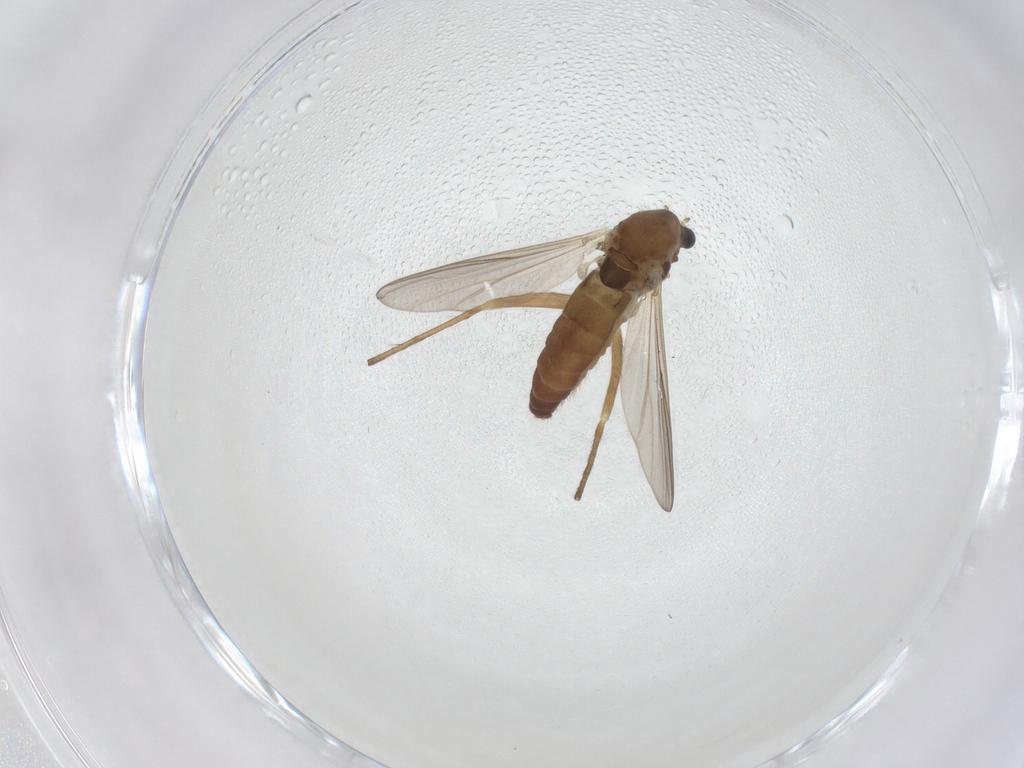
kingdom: Animalia
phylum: Arthropoda
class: Insecta
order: Diptera
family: Chironomidae
